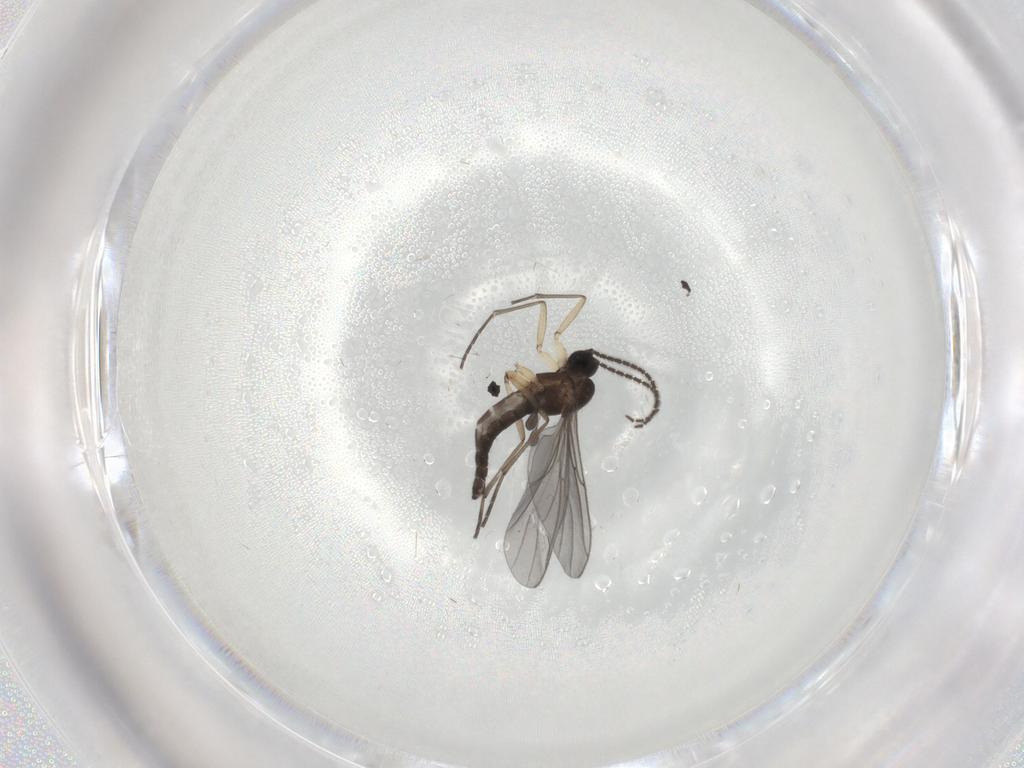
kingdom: Animalia
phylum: Arthropoda
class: Insecta
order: Diptera
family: Sciaridae
